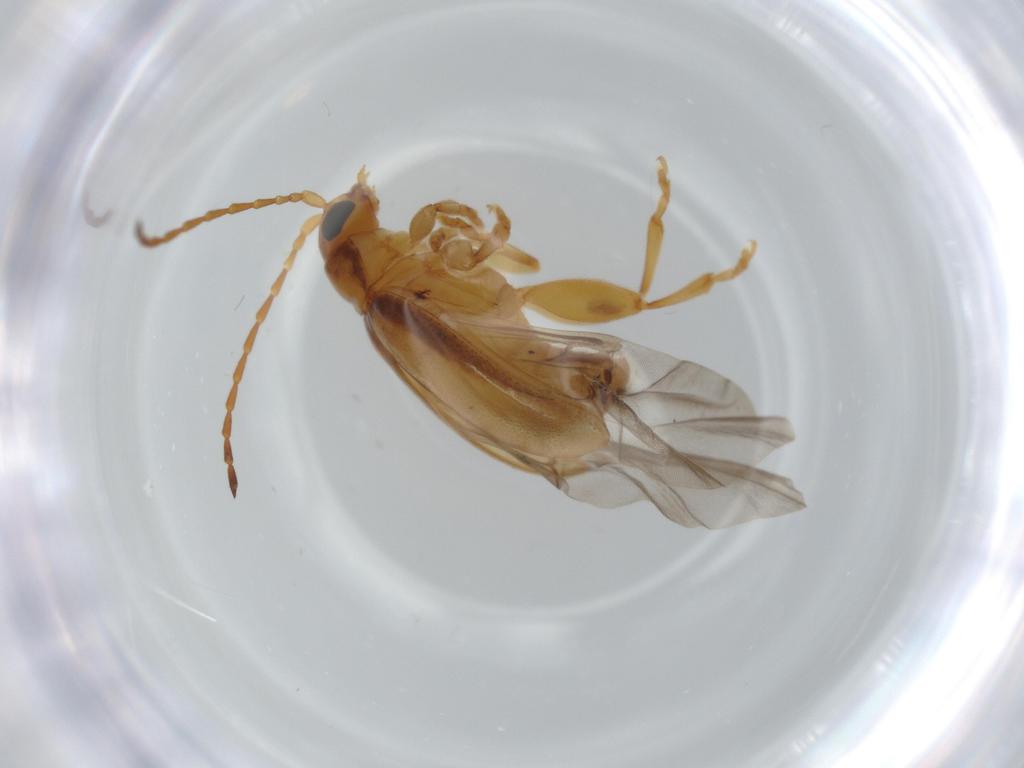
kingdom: Animalia
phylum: Arthropoda
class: Insecta
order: Coleoptera
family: Chrysomelidae
